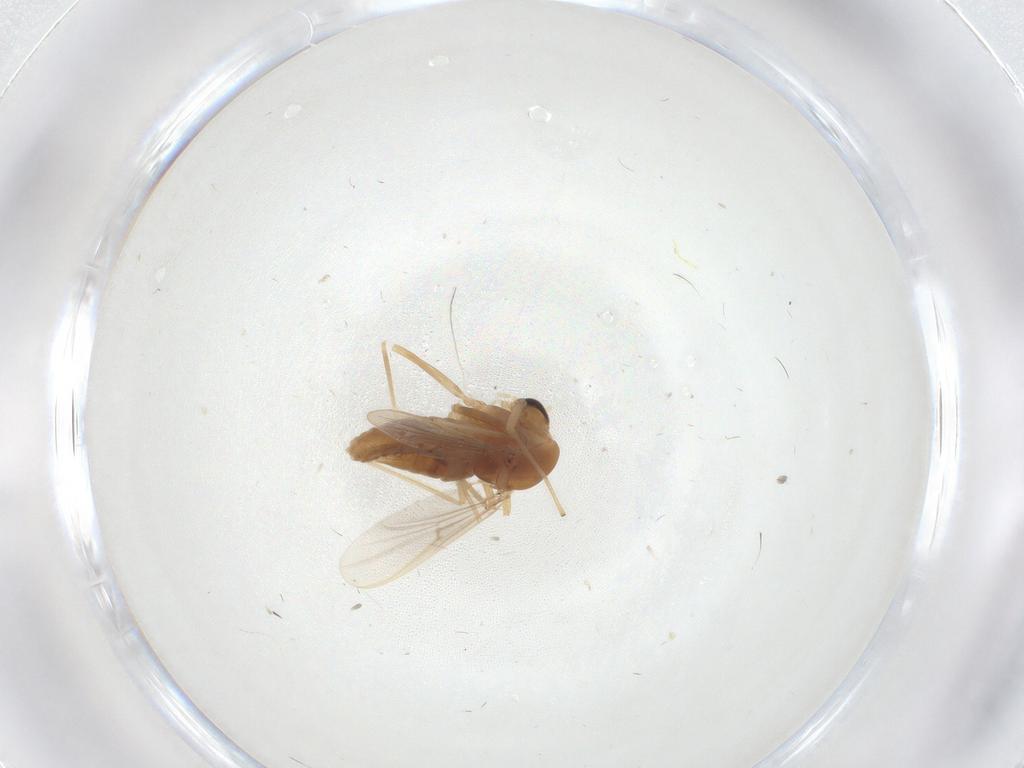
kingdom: Animalia
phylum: Arthropoda
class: Insecta
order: Diptera
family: Chironomidae
